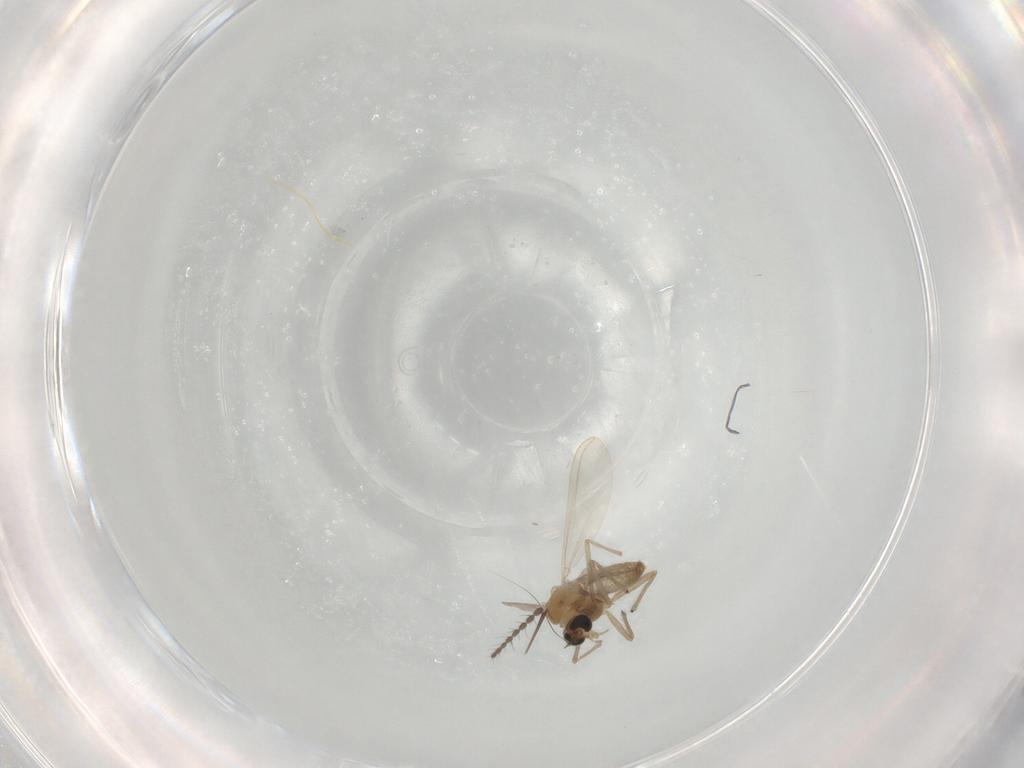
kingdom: Animalia
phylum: Arthropoda
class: Insecta
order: Diptera
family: Chironomidae
